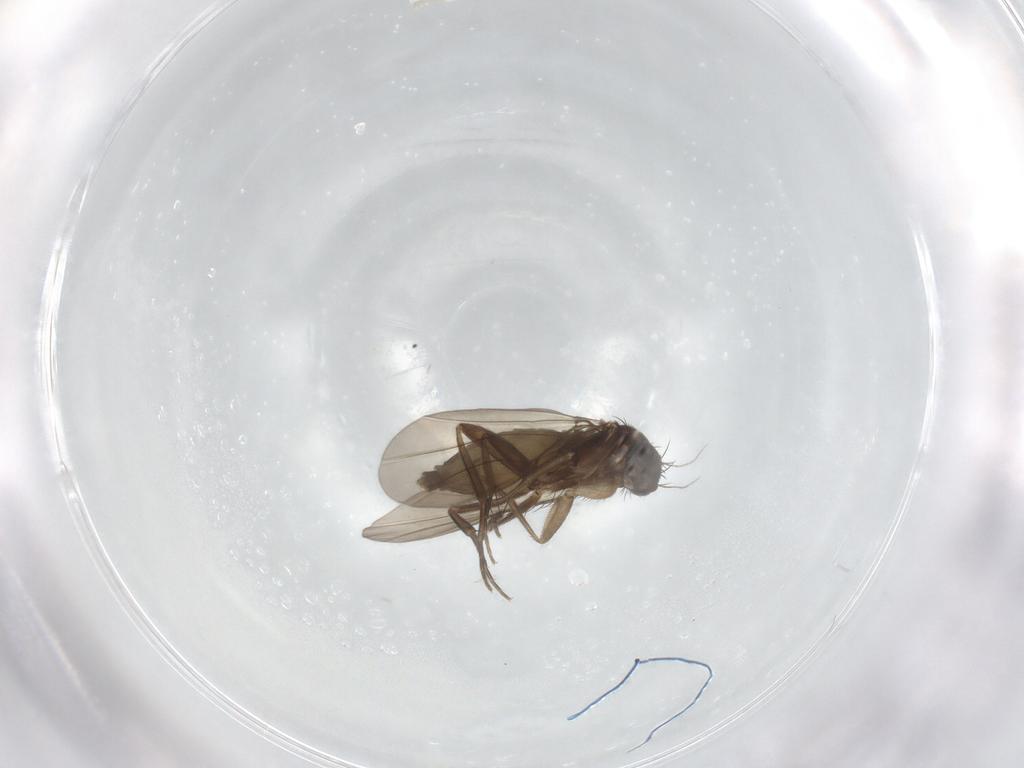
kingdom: Animalia
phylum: Arthropoda
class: Insecta
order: Diptera
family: Phoridae
